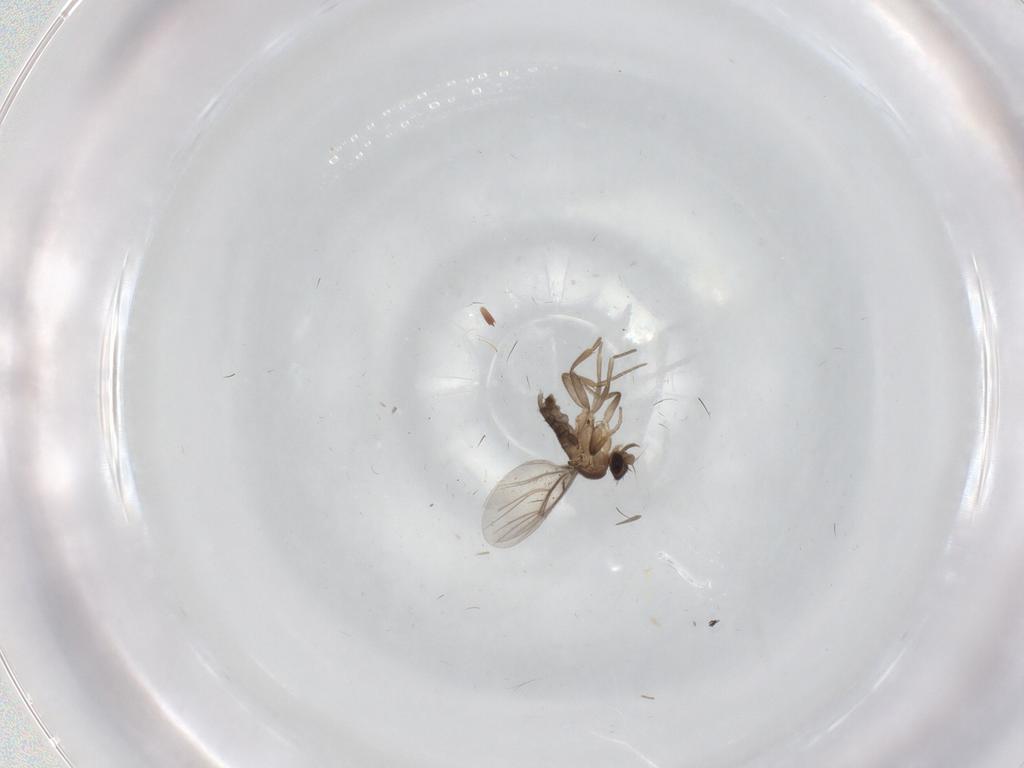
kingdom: Animalia
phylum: Arthropoda
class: Insecta
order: Diptera
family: Phoridae
